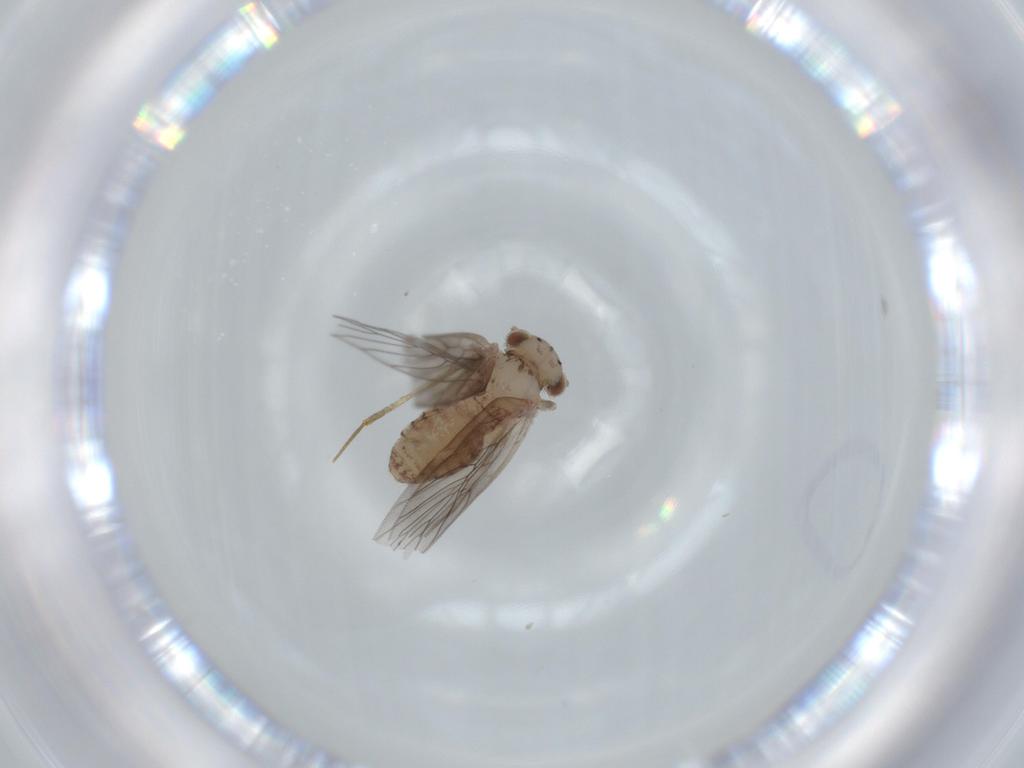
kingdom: Animalia
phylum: Arthropoda
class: Insecta
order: Psocodea
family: Lepidopsocidae
